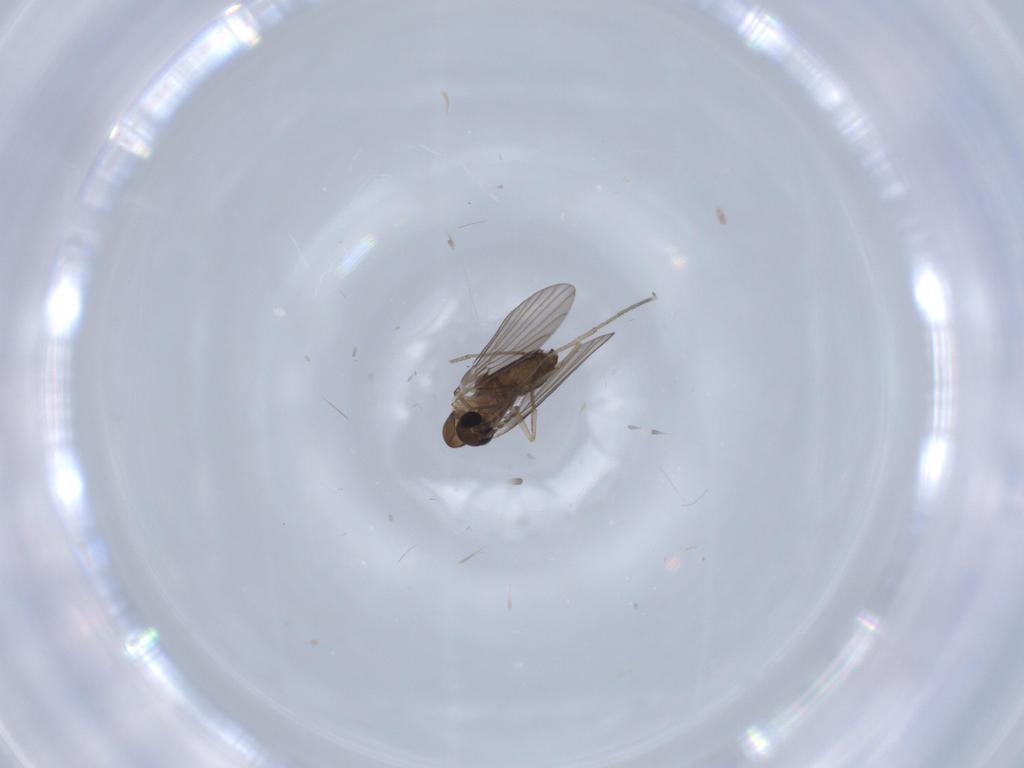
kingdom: Animalia
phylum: Arthropoda
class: Insecta
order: Diptera
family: Psychodidae
